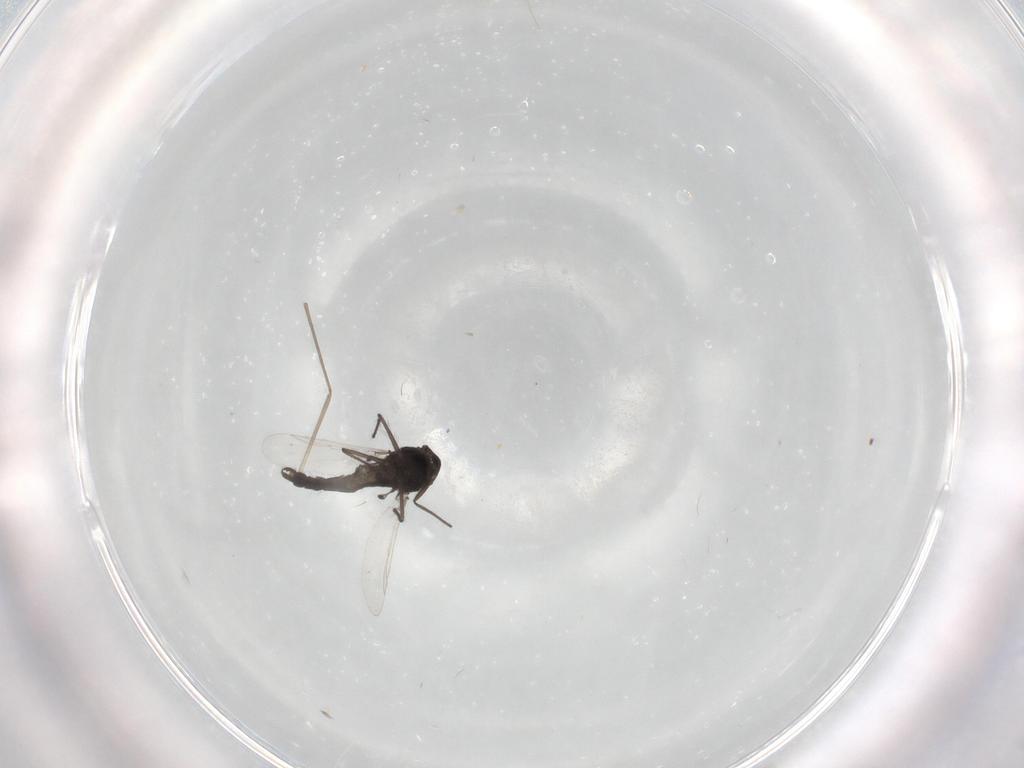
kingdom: Animalia
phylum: Arthropoda
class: Insecta
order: Diptera
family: Chironomidae
